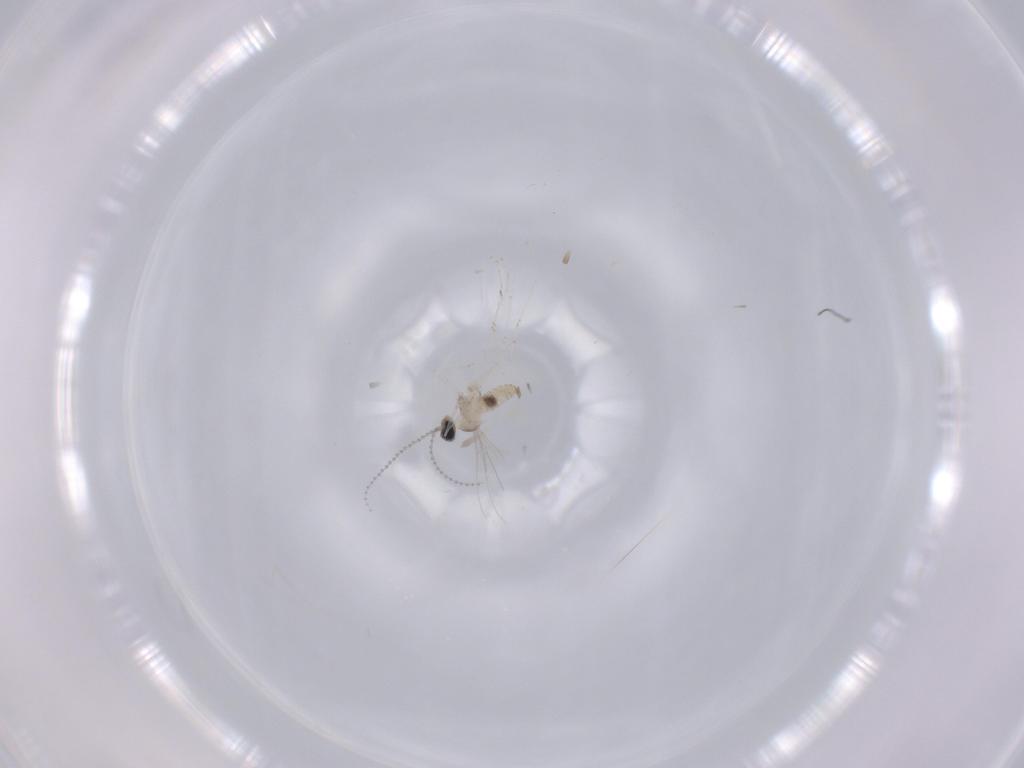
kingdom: Animalia
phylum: Arthropoda
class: Insecta
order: Diptera
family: Cecidomyiidae
